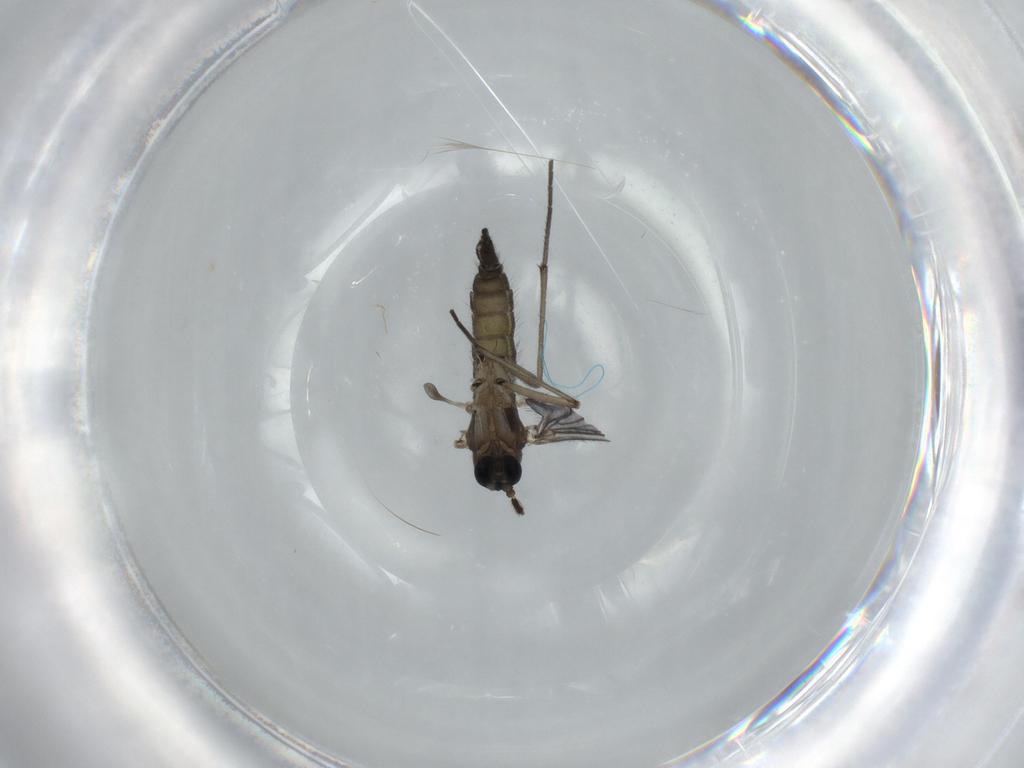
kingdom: Animalia
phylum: Arthropoda
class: Insecta
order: Diptera
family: Sciaridae
